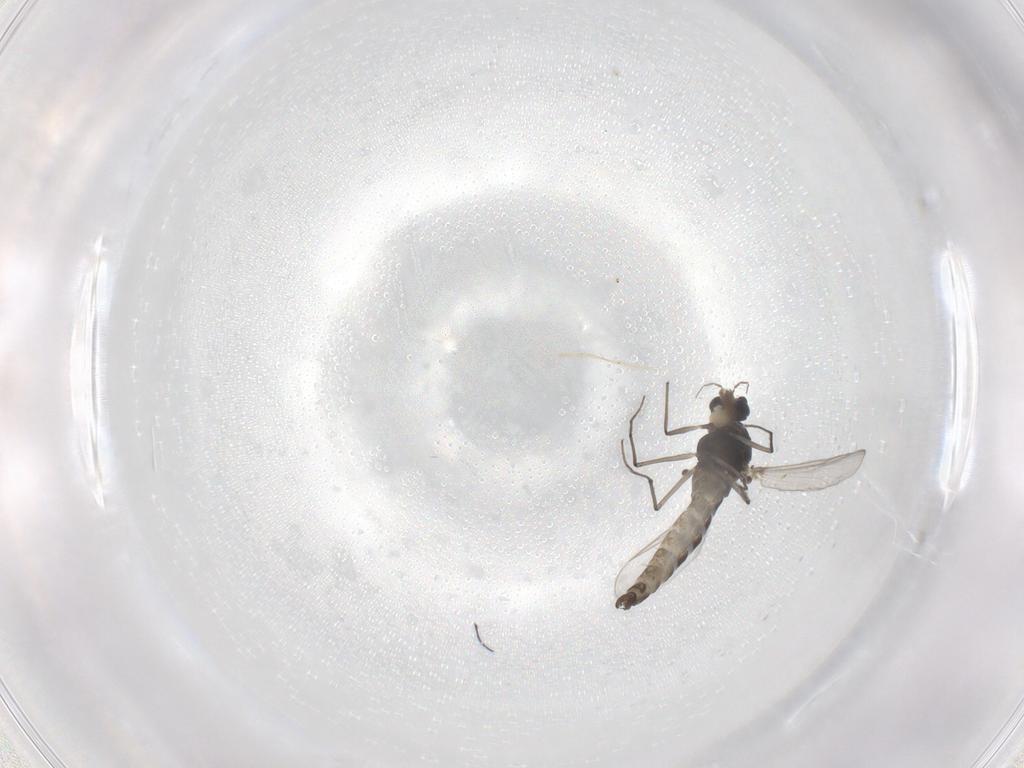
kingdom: Animalia
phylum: Arthropoda
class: Insecta
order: Diptera
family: Chironomidae
